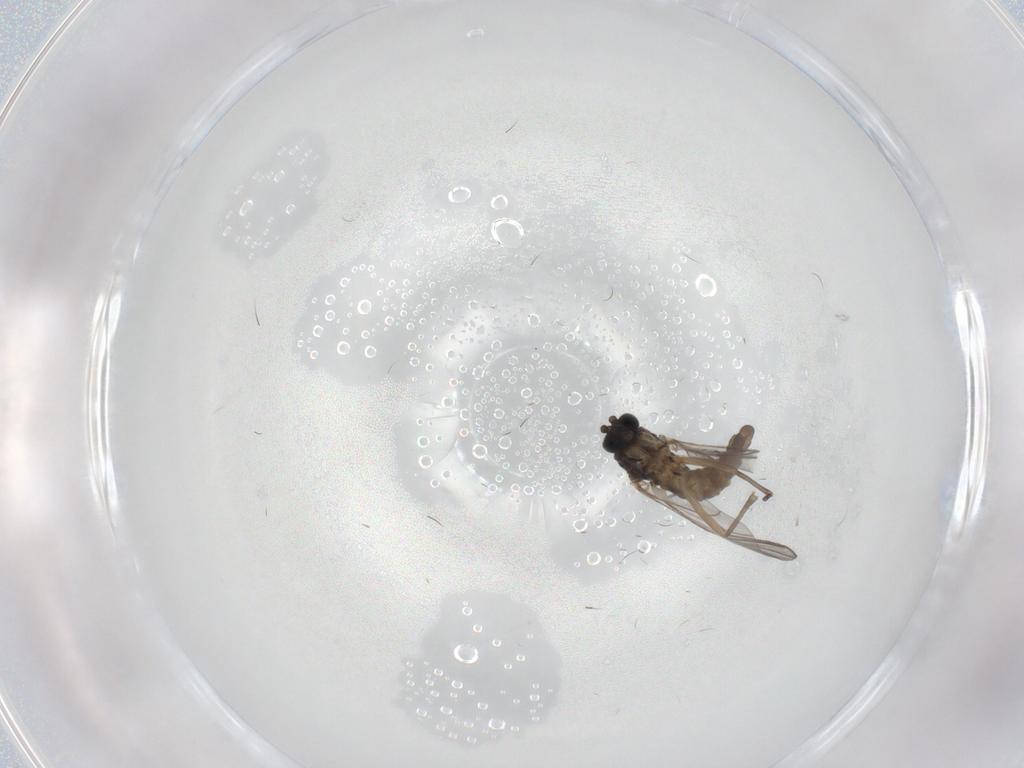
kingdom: Animalia
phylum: Arthropoda
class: Insecta
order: Diptera
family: Sciaridae
